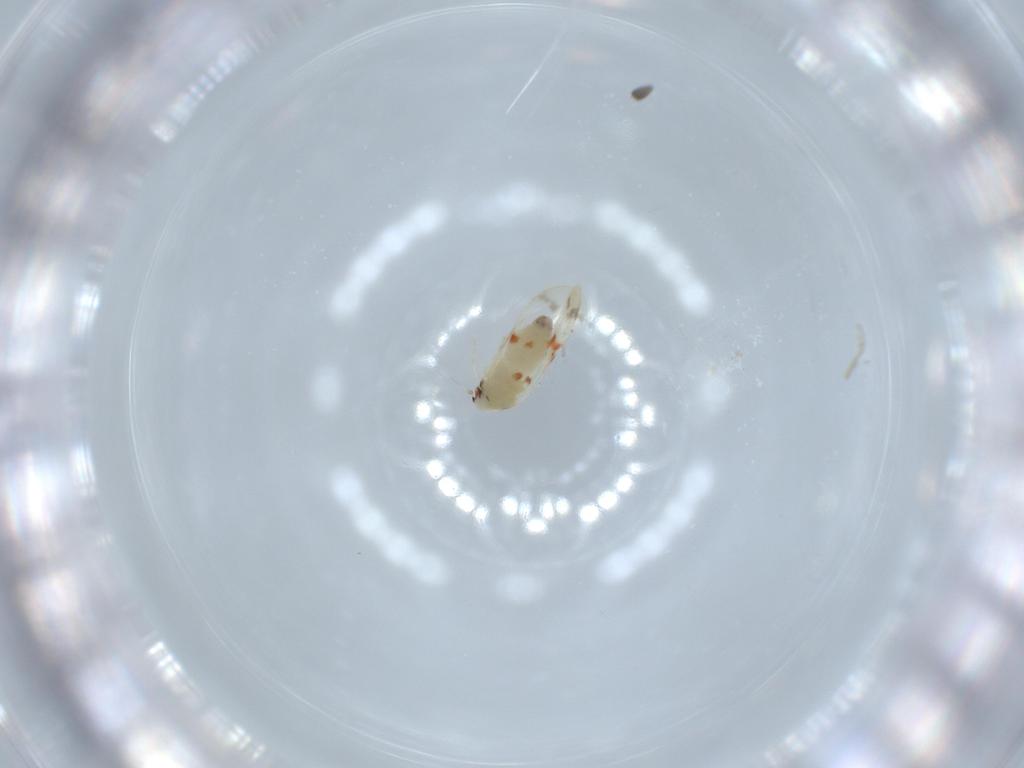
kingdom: Animalia
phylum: Arthropoda
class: Insecta
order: Hemiptera
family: Aleyrodidae
